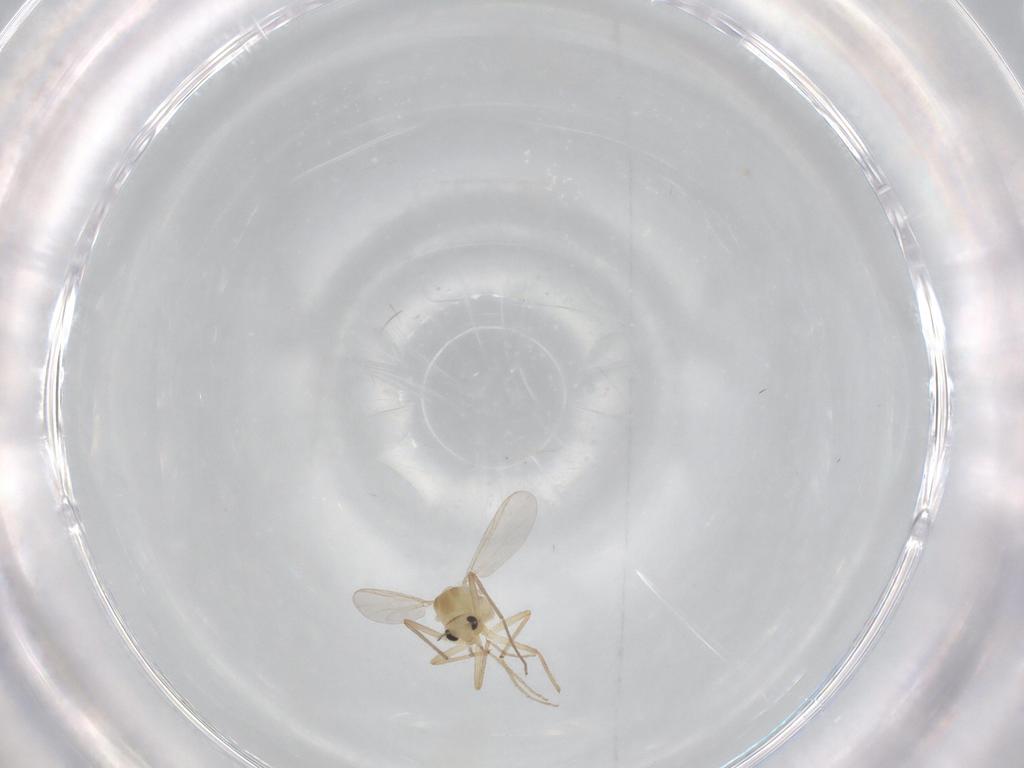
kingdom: Animalia
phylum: Arthropoda
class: Insecta
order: Diptera
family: Chironomidae
